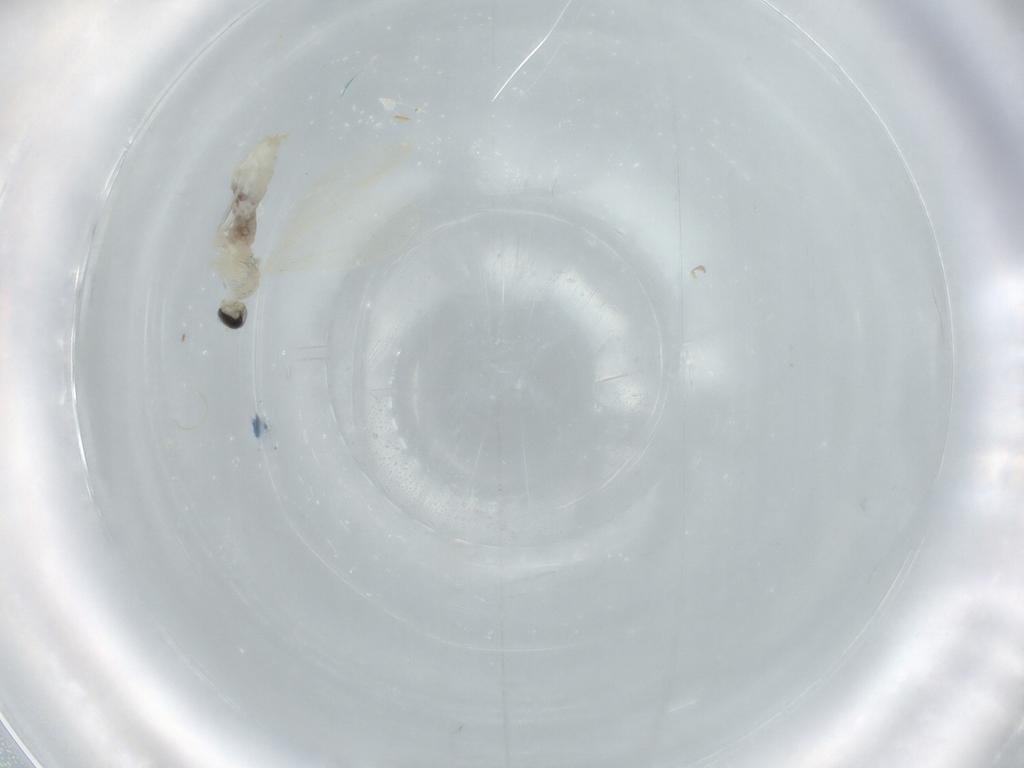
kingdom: Animalia
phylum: Arthropoda
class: Insecta
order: Diptera
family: Cecidomyiidae
